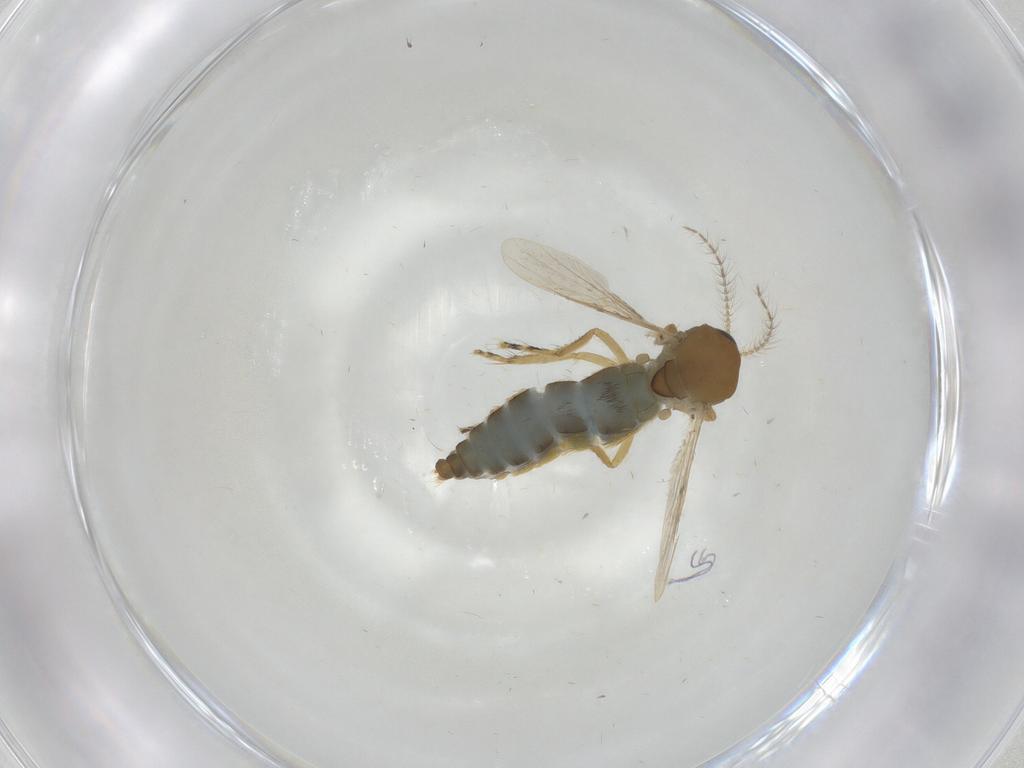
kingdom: Animalia
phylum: Arthropoda
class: Insecta
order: Diptera
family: Ceratopogonidae
